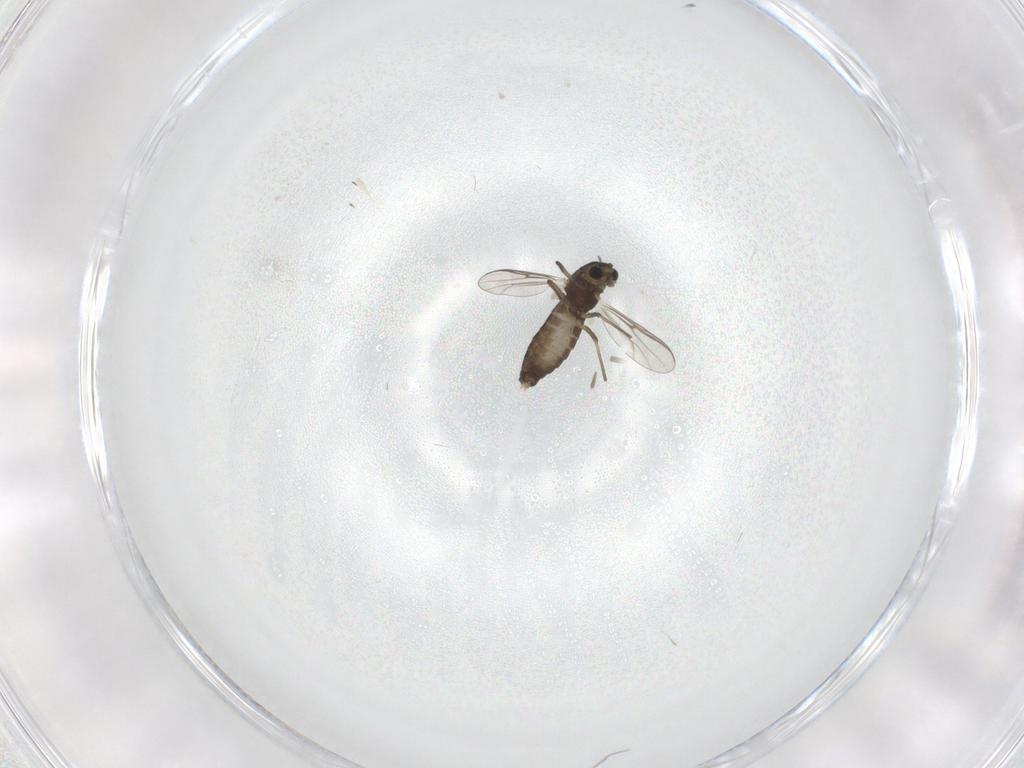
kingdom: Animalia
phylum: Arthropoda
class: Insecta
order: Diptera
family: Chironomidae
